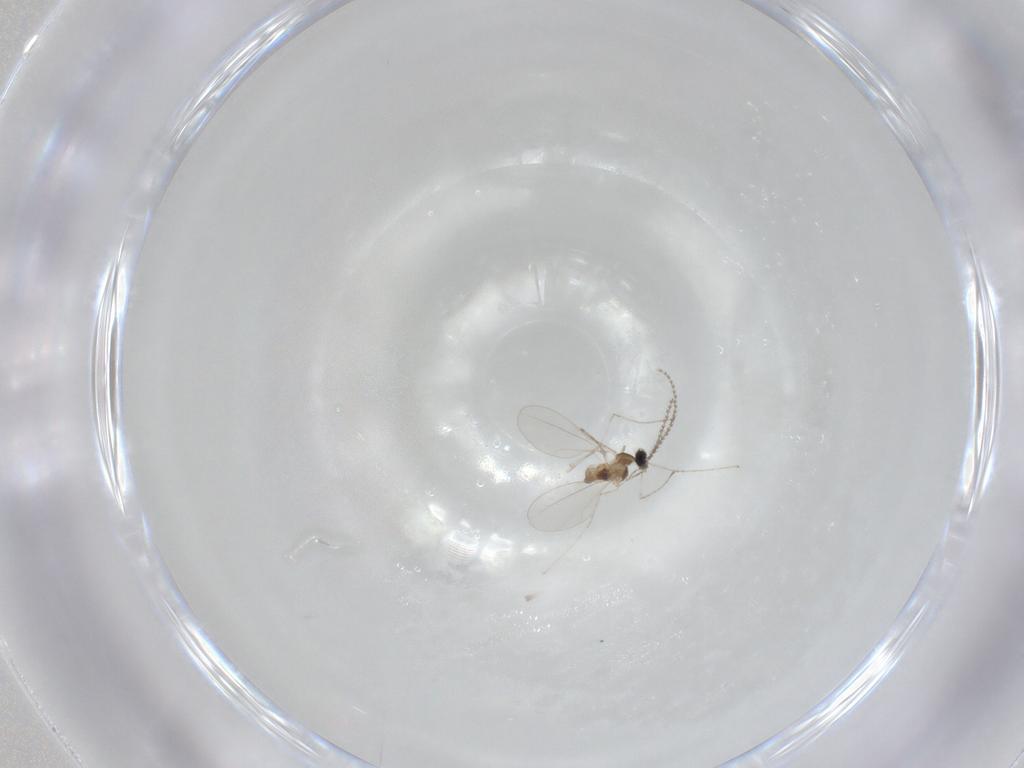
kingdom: Animalia
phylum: Arthropoda
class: Insecta
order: Diptera
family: Cecidomyiidae
